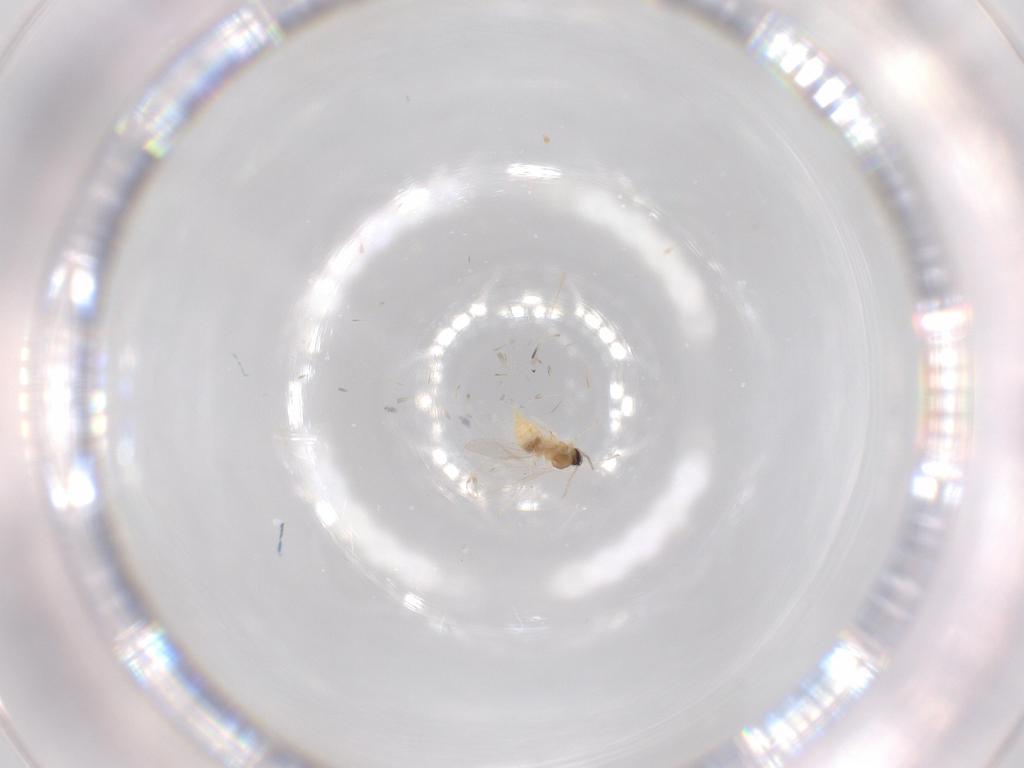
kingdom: Animalia
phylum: Arthropoda
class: Insecta
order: Diptera
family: Cecidomyiidae
